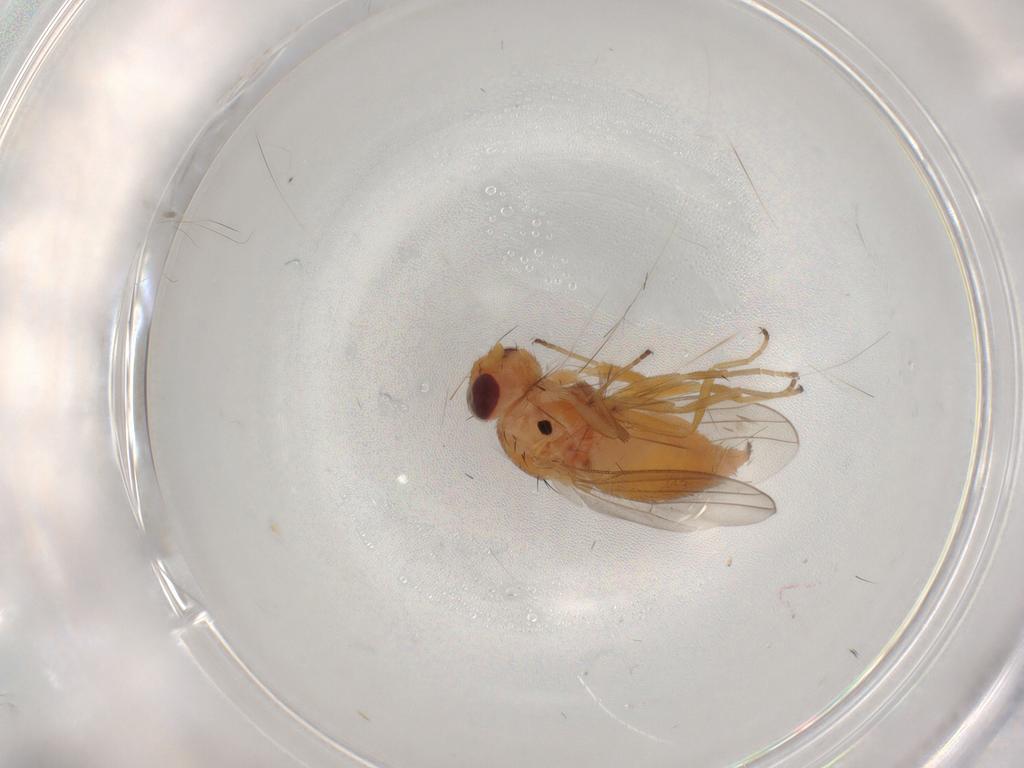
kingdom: Animalia
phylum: Arthropoda
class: Insecta
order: Diptera
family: Chloropidae
